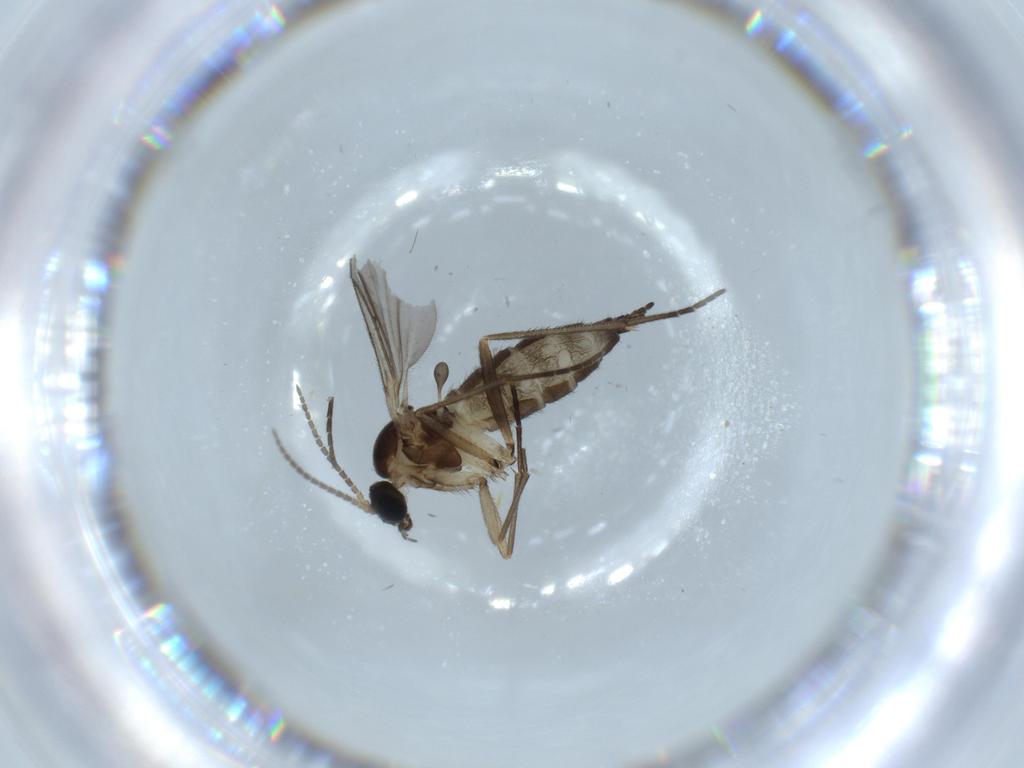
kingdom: Animalia
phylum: Arthropoda
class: Insecta
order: Diptera
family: Sciaridae
